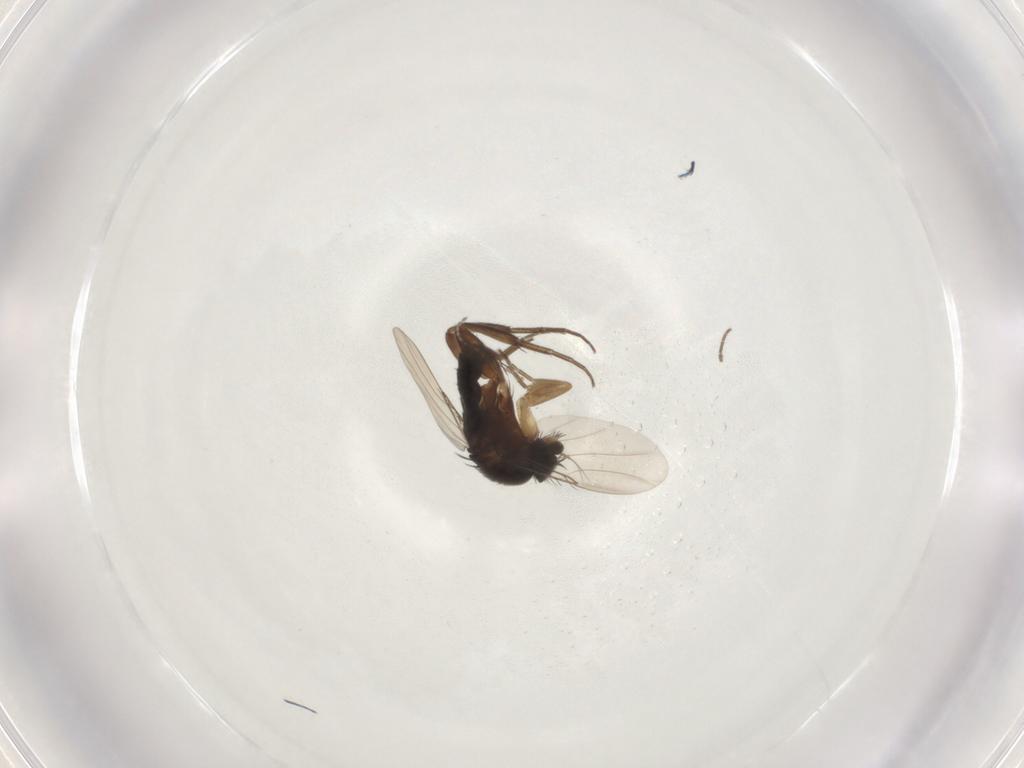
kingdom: Animalia
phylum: Arthropoda
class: Insecta
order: Diptera
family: Phoridae
